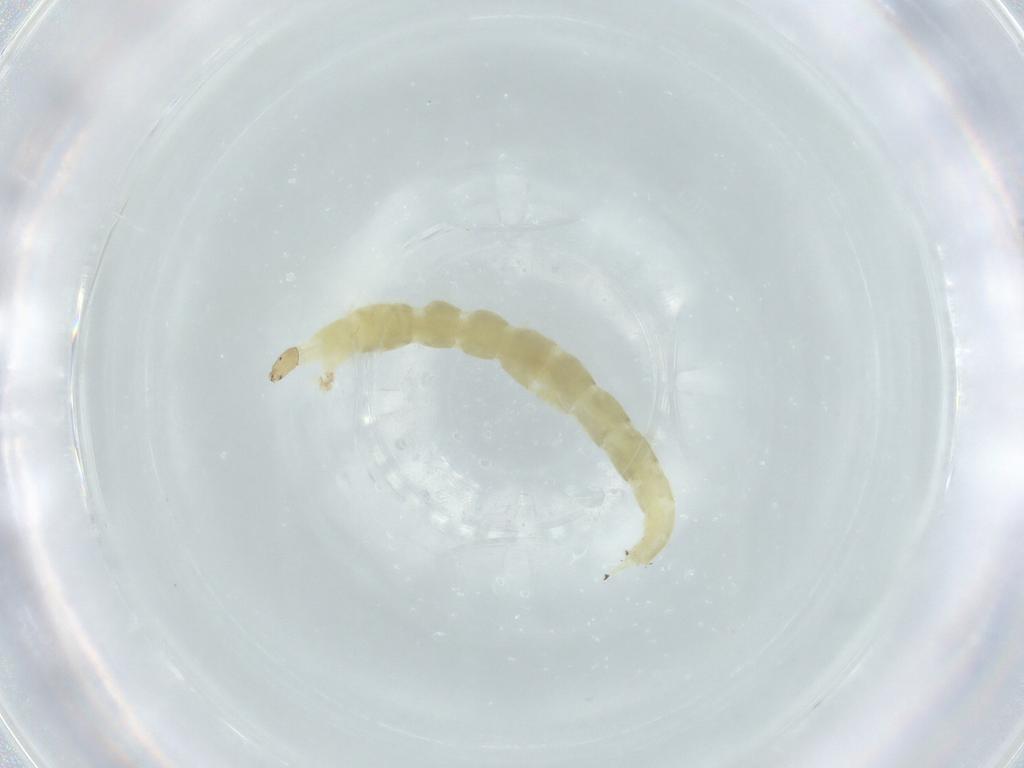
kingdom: Animalia
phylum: Arthropoda
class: Insecta
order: Diptera
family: Chironomidae
